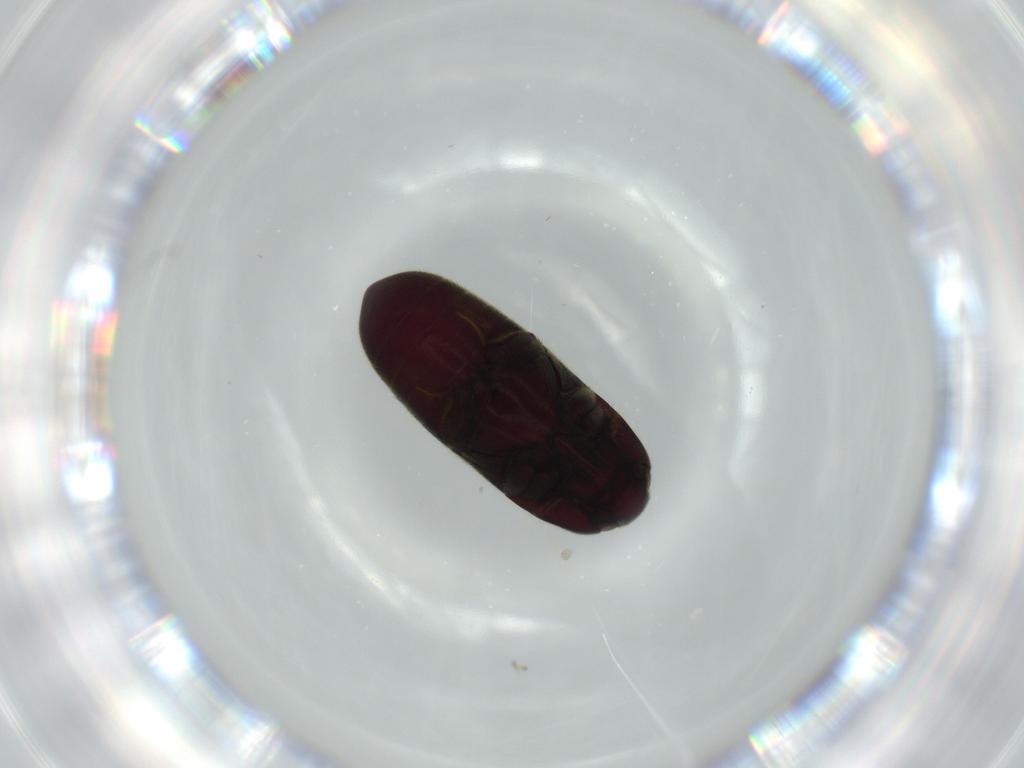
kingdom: Animalia
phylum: Arthropoda
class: Insecta
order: Coleoptera
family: Throscidae
